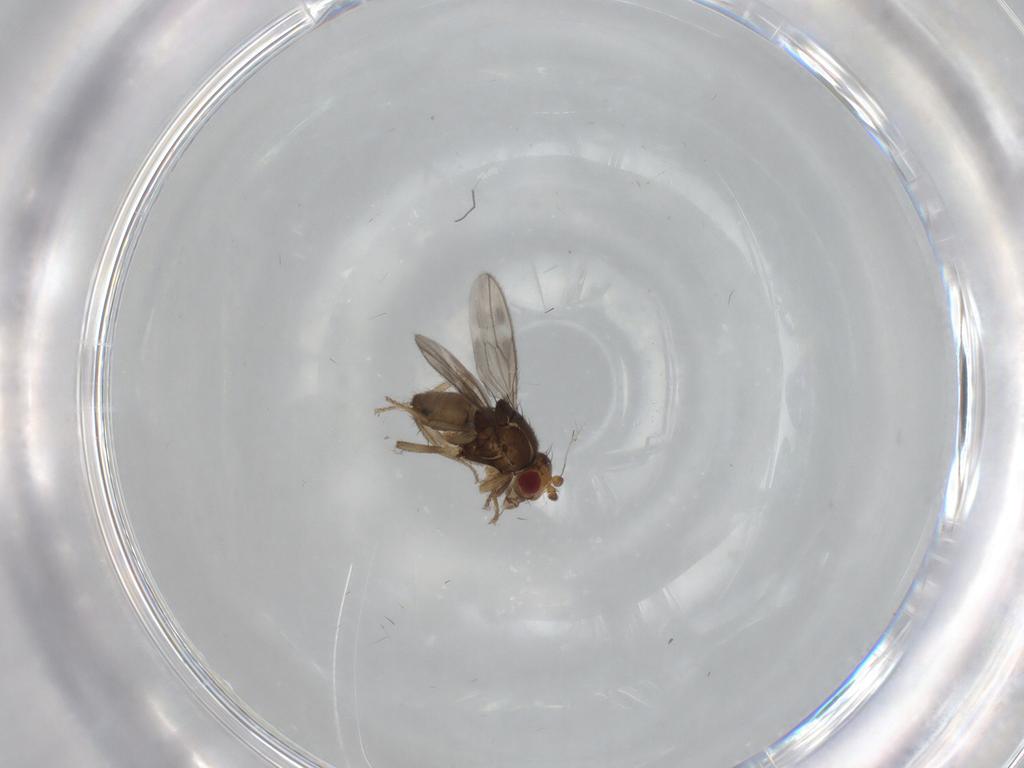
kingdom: Animalia
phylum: Arthropoda
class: Insecta
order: Diptera
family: Sphaeroceridae
